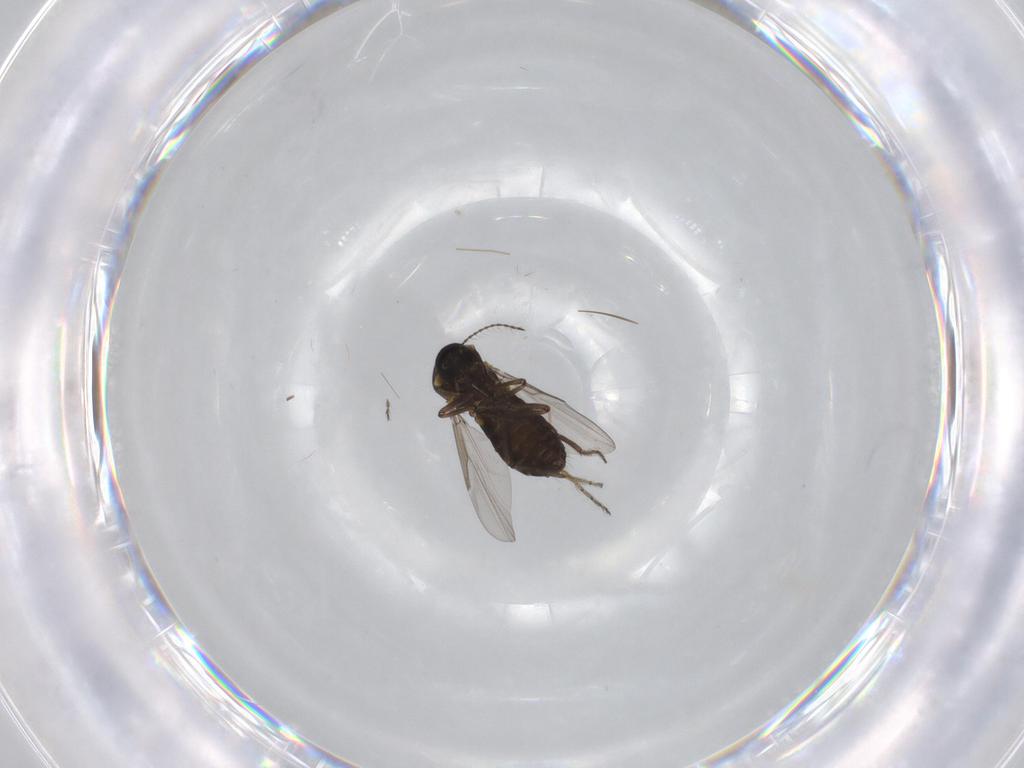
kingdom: Animalia
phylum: Arthropoda
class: Insecta
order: Diptera
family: Ceratopogonidae
